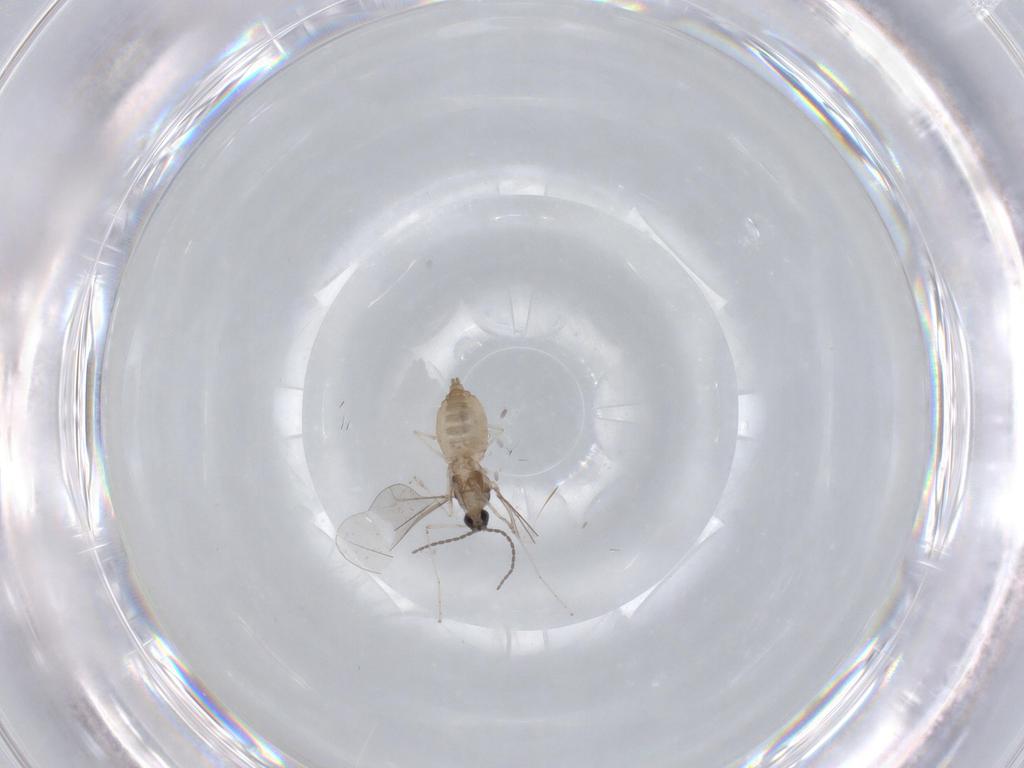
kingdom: Animalia
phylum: Arthropoda
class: Insecta
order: Diptera
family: Cecidomyiidae
